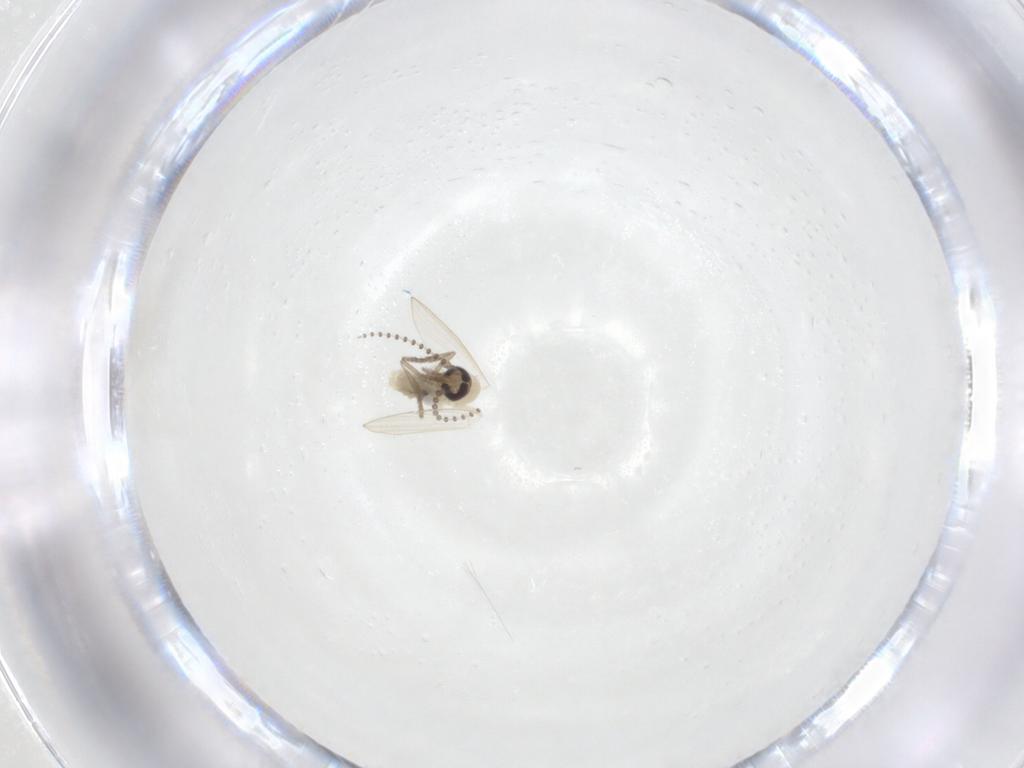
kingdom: Animalia
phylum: Arthropoda
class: Insecta
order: Diptera
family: Psychodidae
